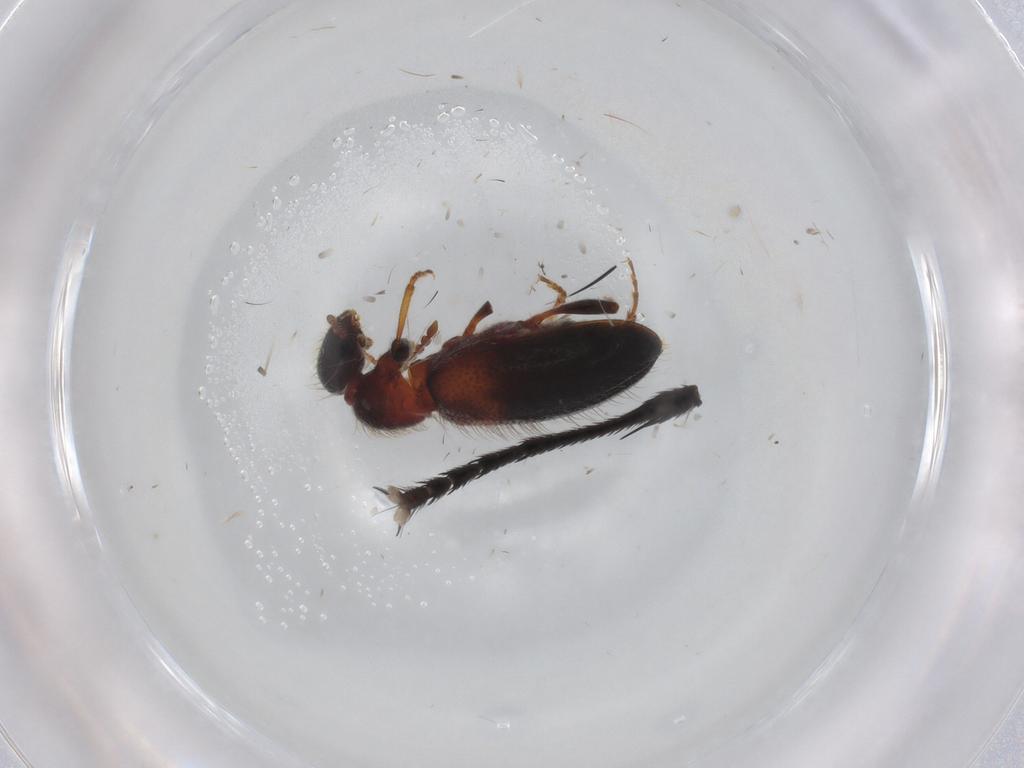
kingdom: Animalia
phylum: Arthropoda
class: Insecta
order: Coleoptera
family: Anthicidae
